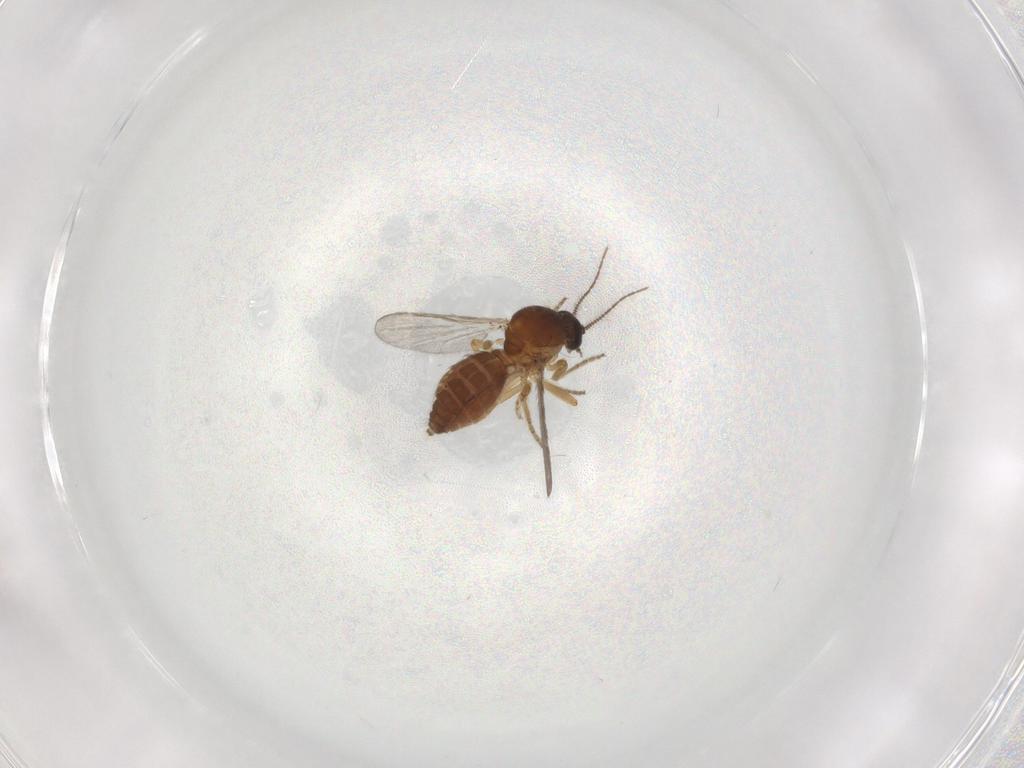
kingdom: Animalia
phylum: Arthropoda
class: Insecta
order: Diptera
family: Ceratopogonidae
